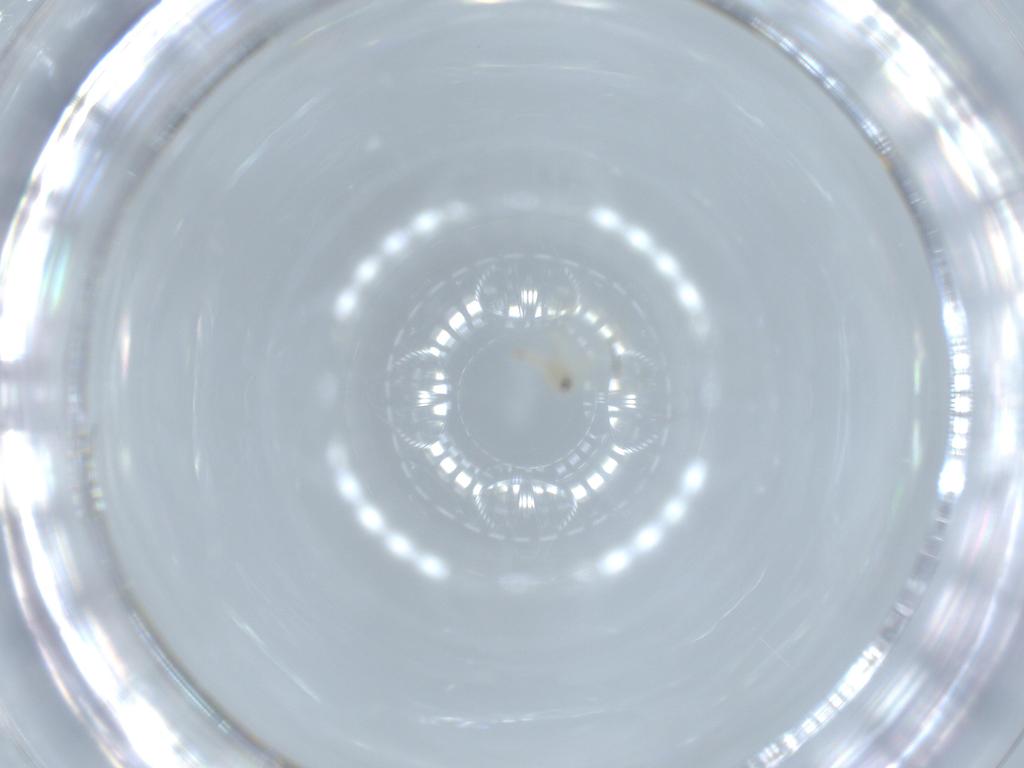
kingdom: Animalia
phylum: Arthropoda
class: Insecta
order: Hemiptera
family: Aleyrodidae
